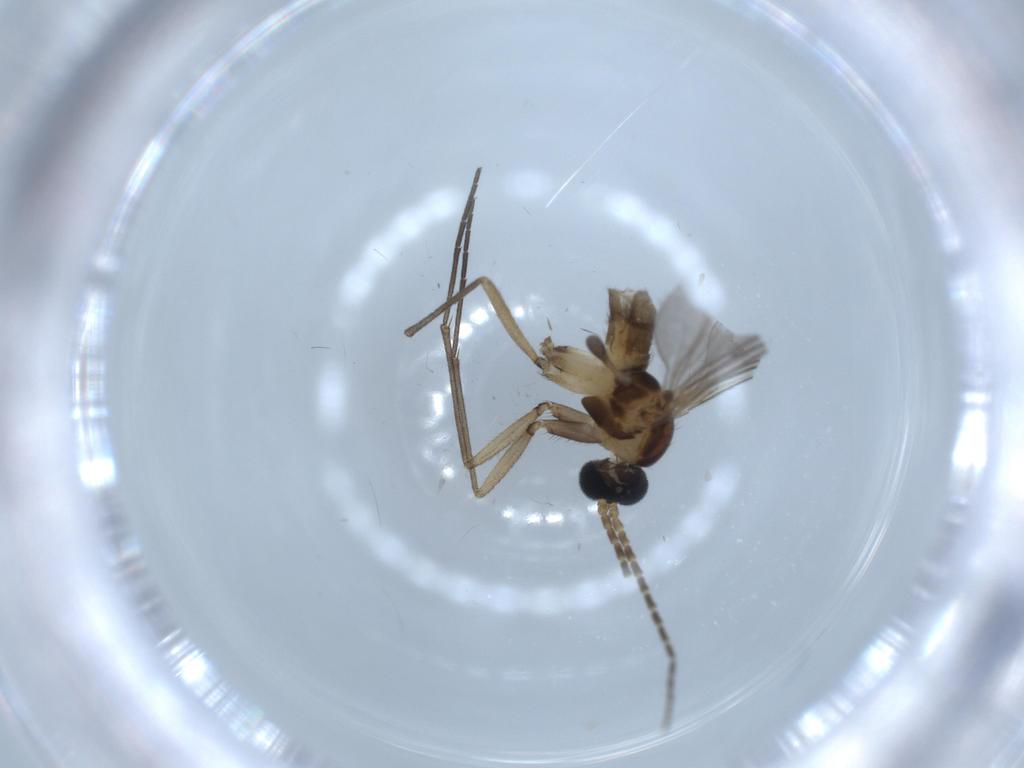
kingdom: Animalia
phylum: Arthropoda
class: Insecta
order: Diptera
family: Sciaridae
